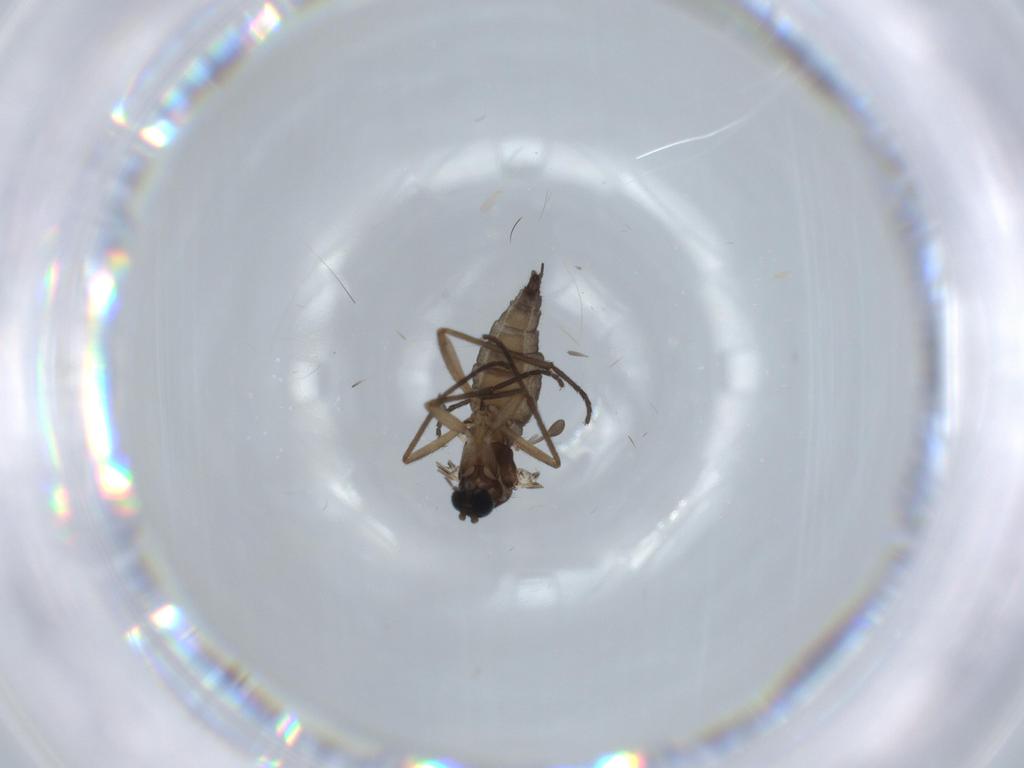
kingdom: Animalia
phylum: Arthropoda
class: Insecta
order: Diptera
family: Sciaridae
